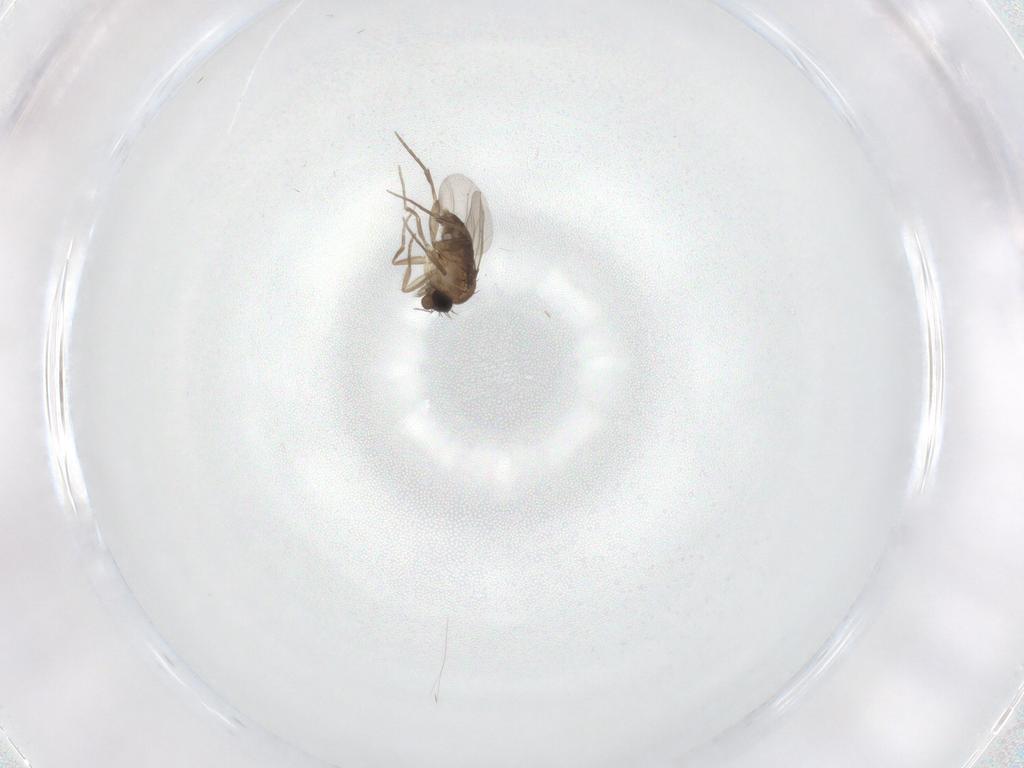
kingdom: Animalia
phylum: Arthropoda
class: Insecta
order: Diptera
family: Phoridae
